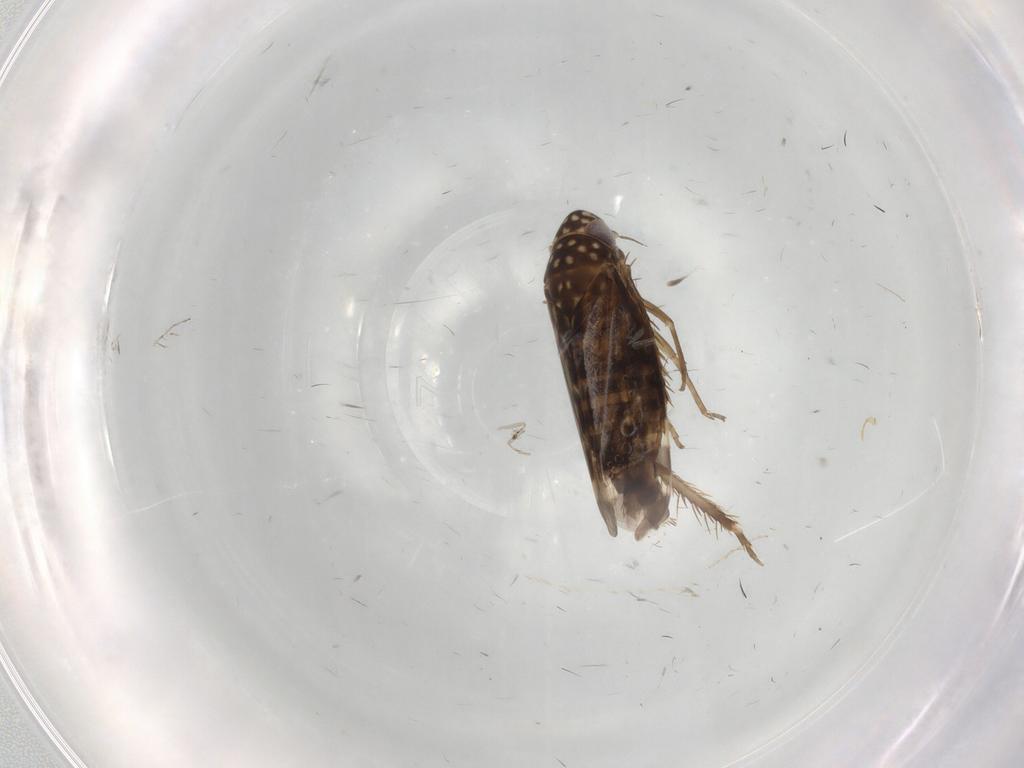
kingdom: Animalia
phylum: Arthropoda
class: Insecta
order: Hemiptera
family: Cicadellidae
